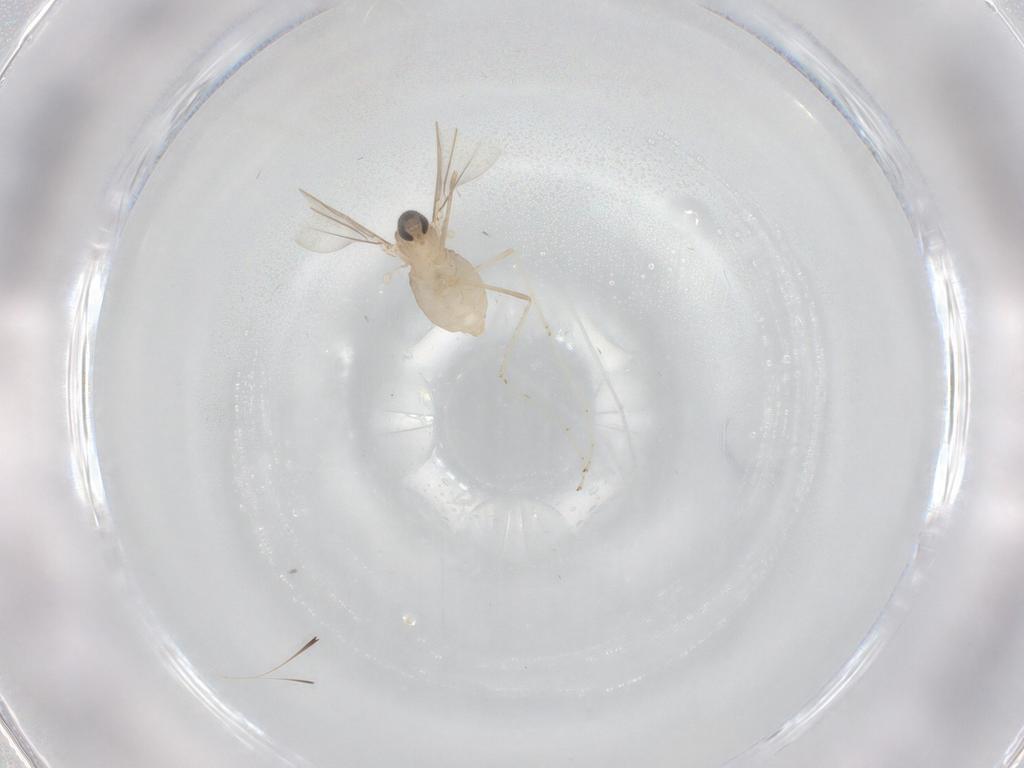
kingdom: Animalia
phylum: Arthropoda
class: Insecta
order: Diptera
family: Cecidomyiidae
